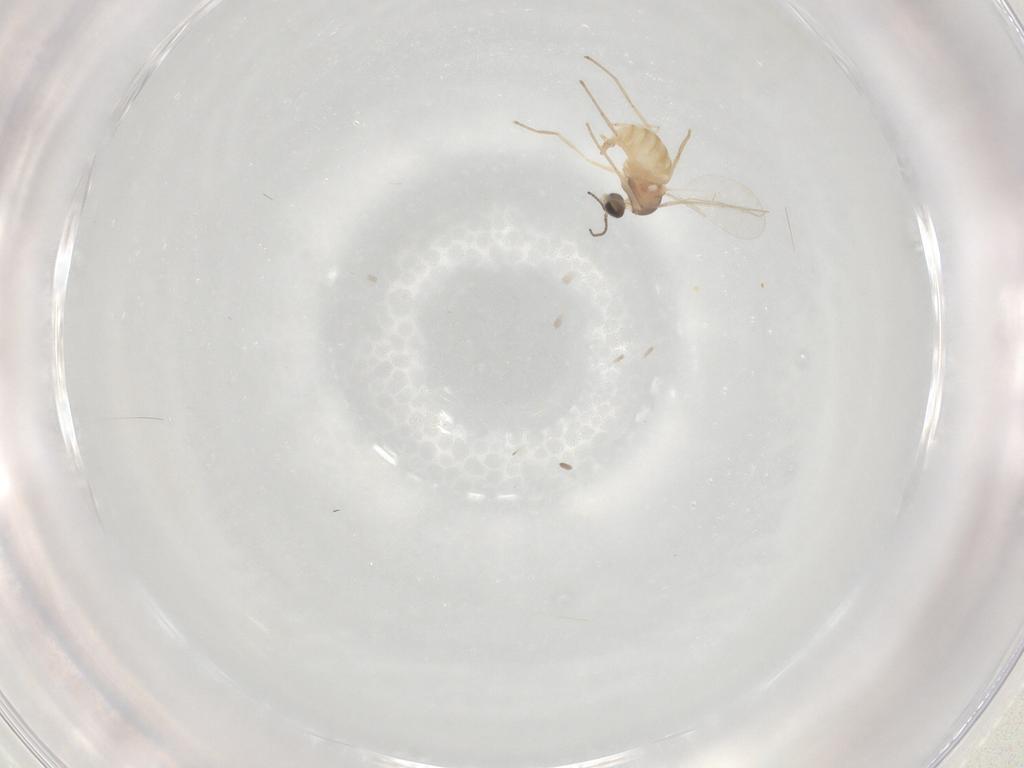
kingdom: Animalia
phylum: Arthropoda
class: Insecta
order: Diptera
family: Cecidomyiidae
